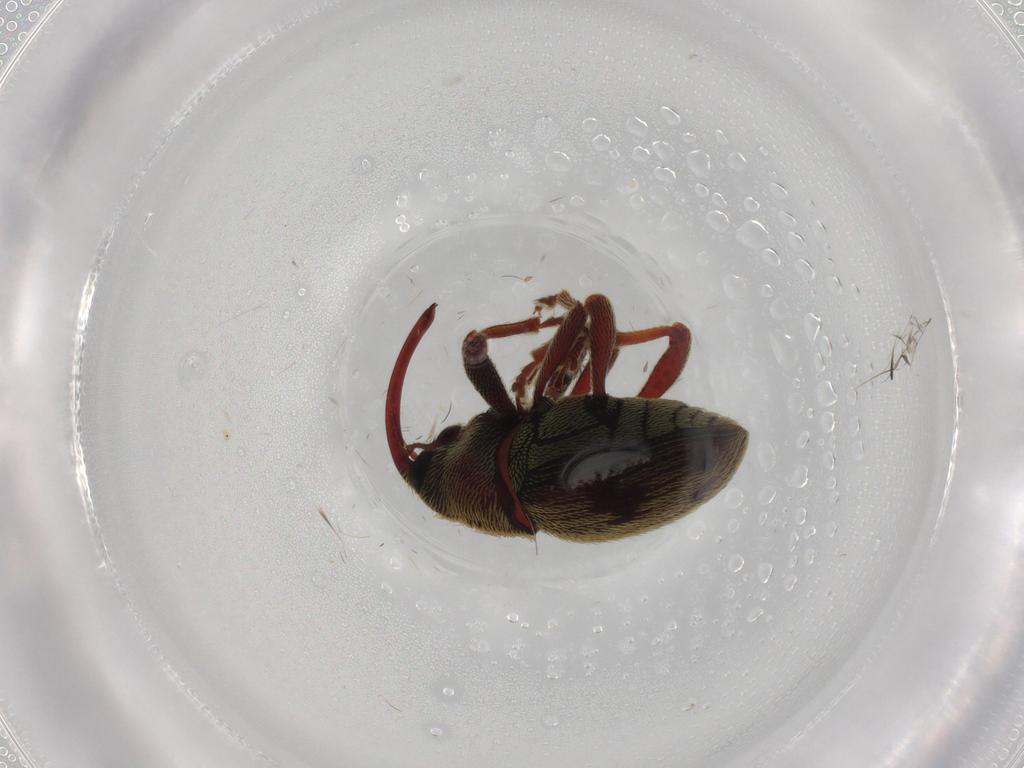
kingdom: Animalia
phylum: Arthropoda
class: Insecta
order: Coleoptera
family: Curculionidae
